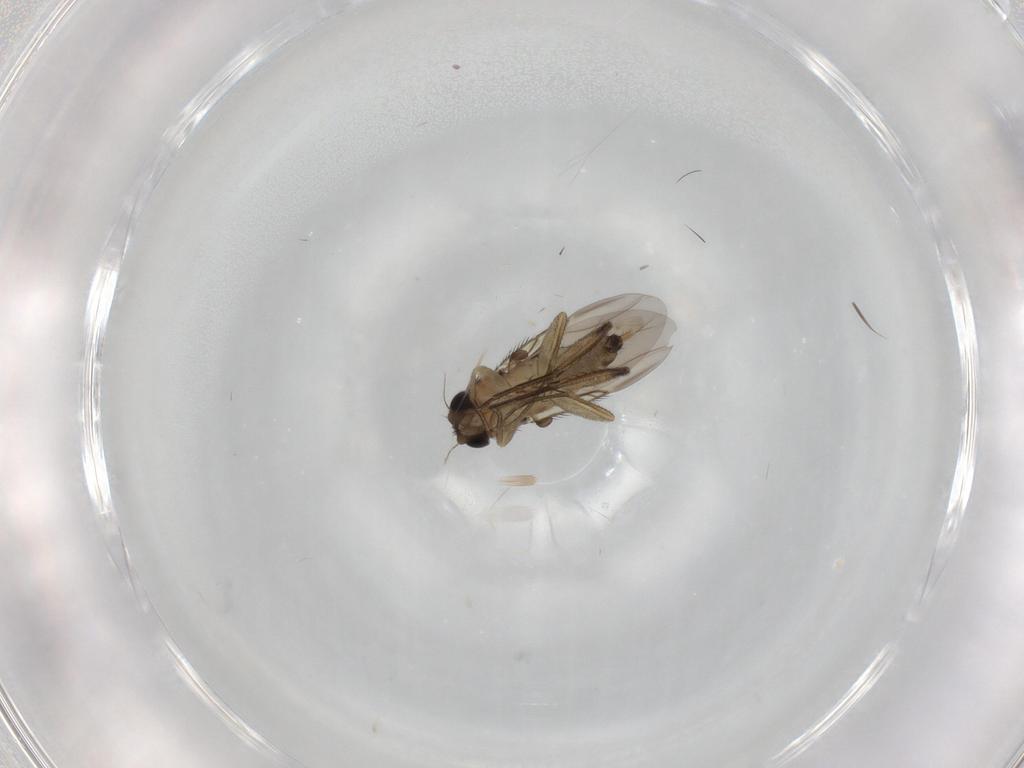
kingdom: Animalia
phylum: Arthropoda
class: Insecta
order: Diptera
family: Phoridae
